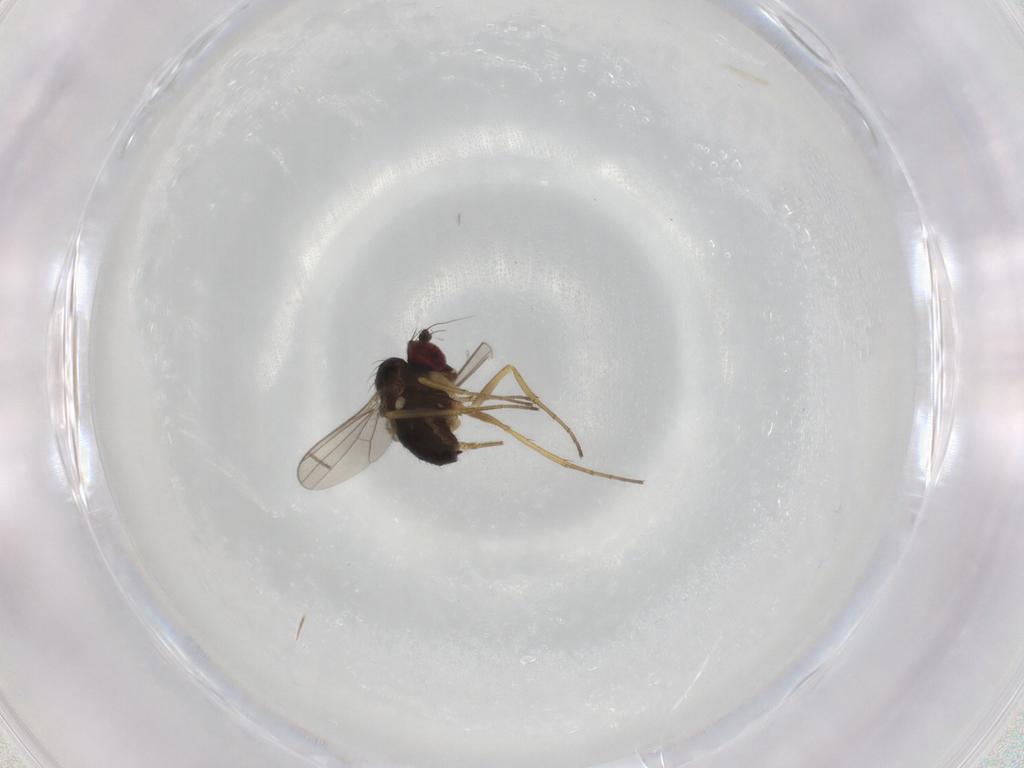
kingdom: Animalia
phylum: Arthropoda
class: Insecta
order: Diptera
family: Dolichopodidae
